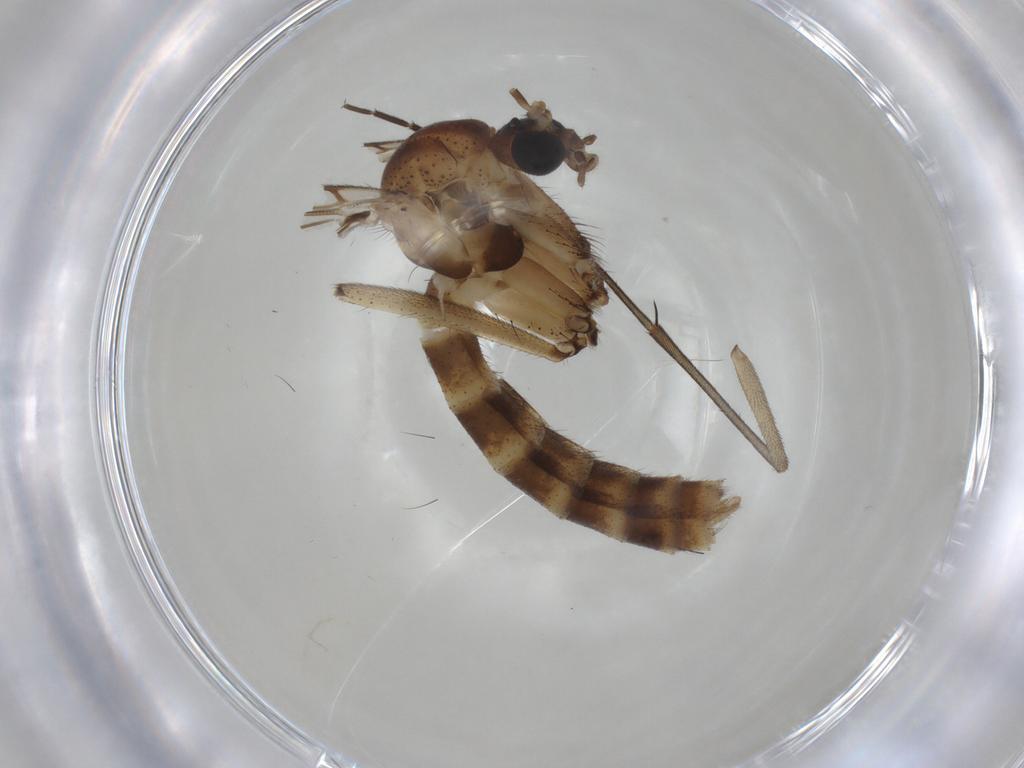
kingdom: Animalia
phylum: Arthropoda
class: Insecta
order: Diptera
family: Mycetophilidae
